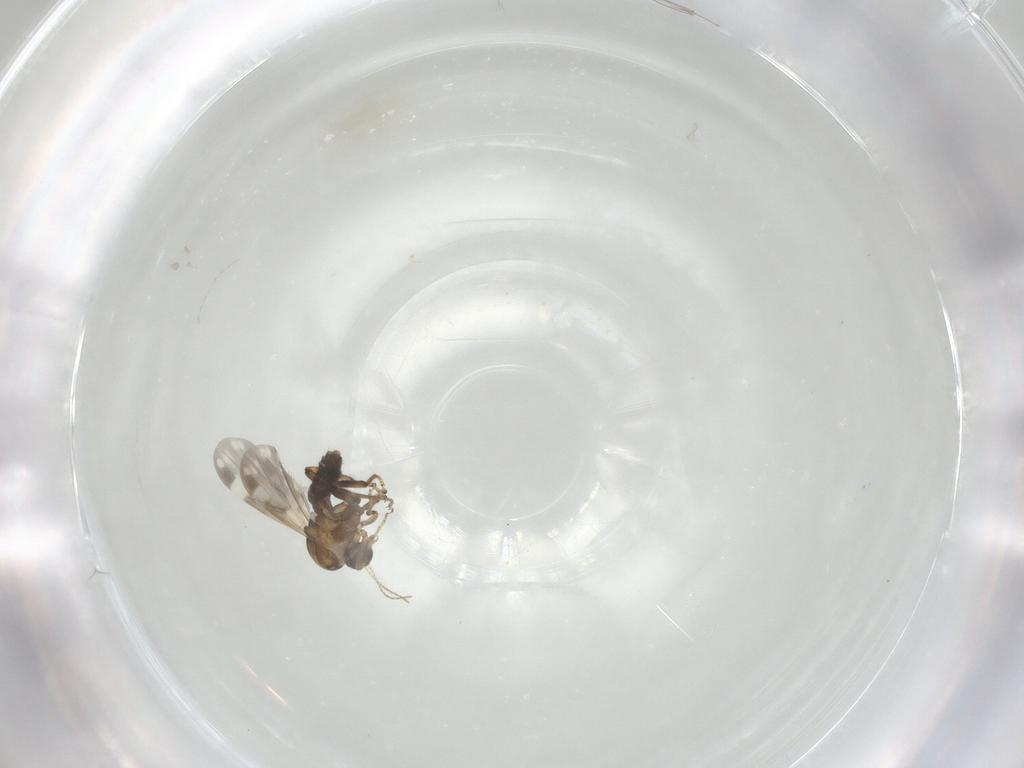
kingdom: Animalia
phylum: Arthropoda
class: Insecta
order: Diptera
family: Ceratopogonidae
